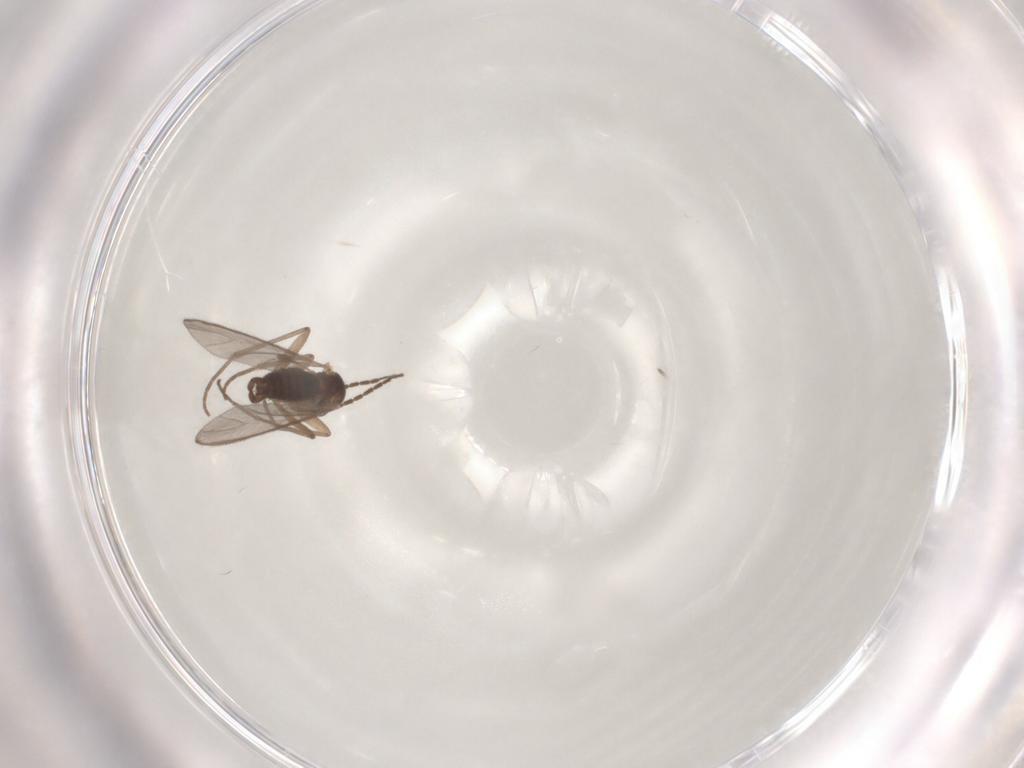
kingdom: Animalia
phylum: Arthropoda
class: Insecta
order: Diptera
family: Sciaridae
